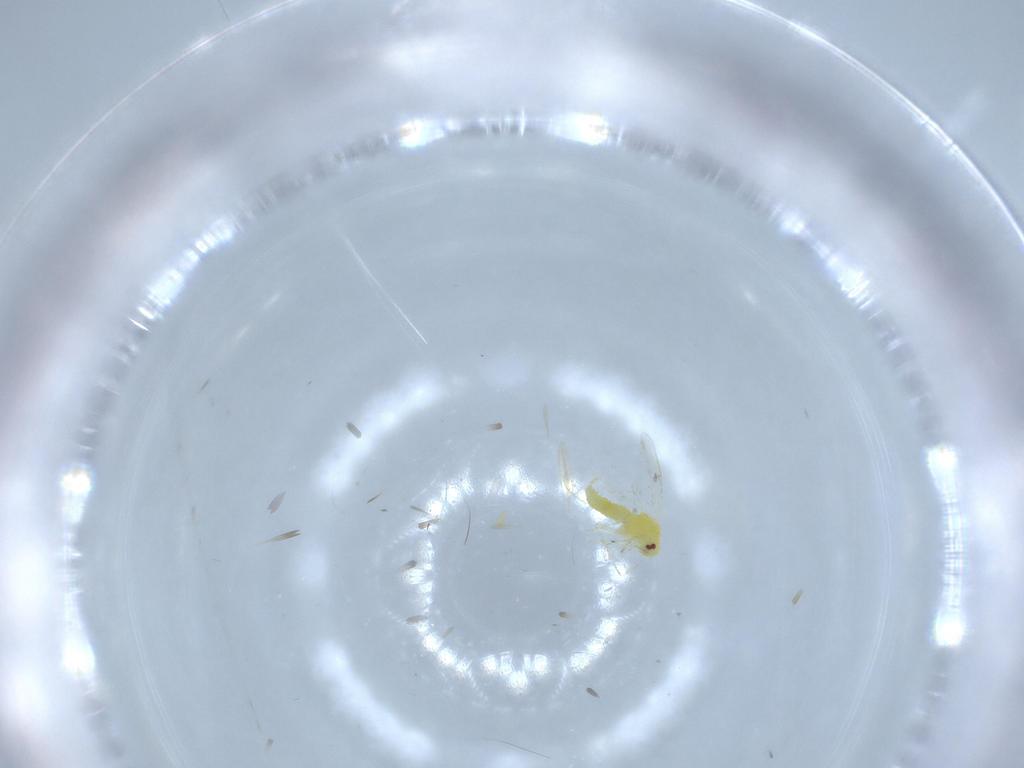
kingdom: Animalia
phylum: Arthropoda
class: Insecta
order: Hemiptera
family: Aleyrodidae
